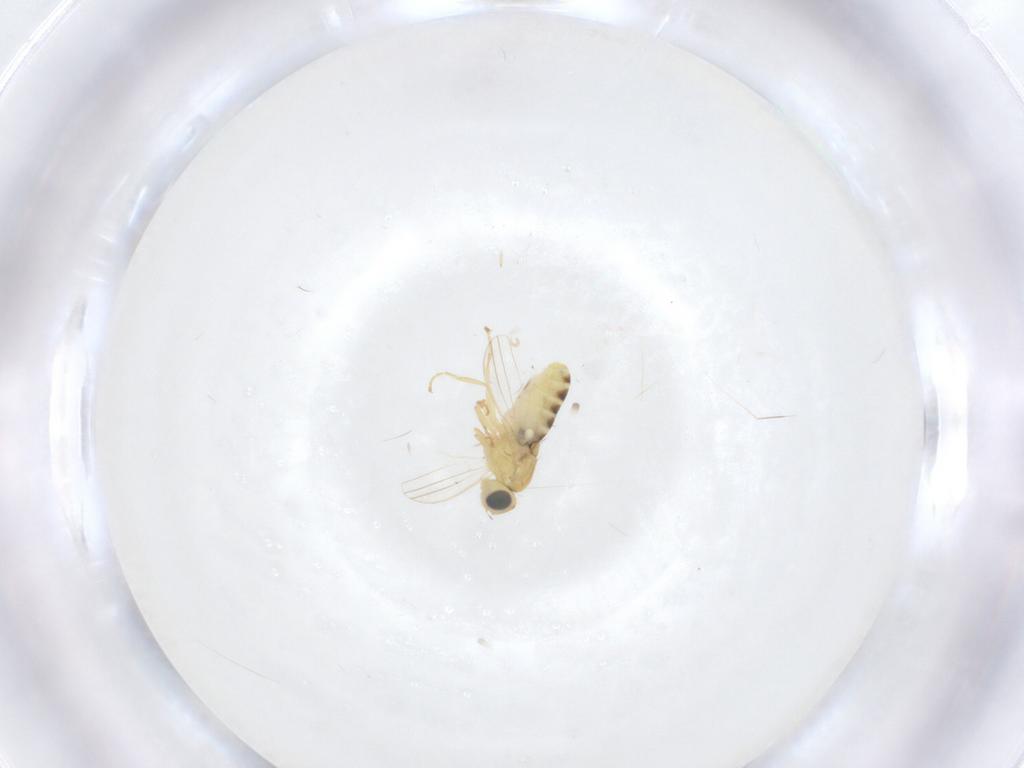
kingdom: Animalia
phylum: Arthropoda
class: Insecta
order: Diptera
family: Chyromyidae
